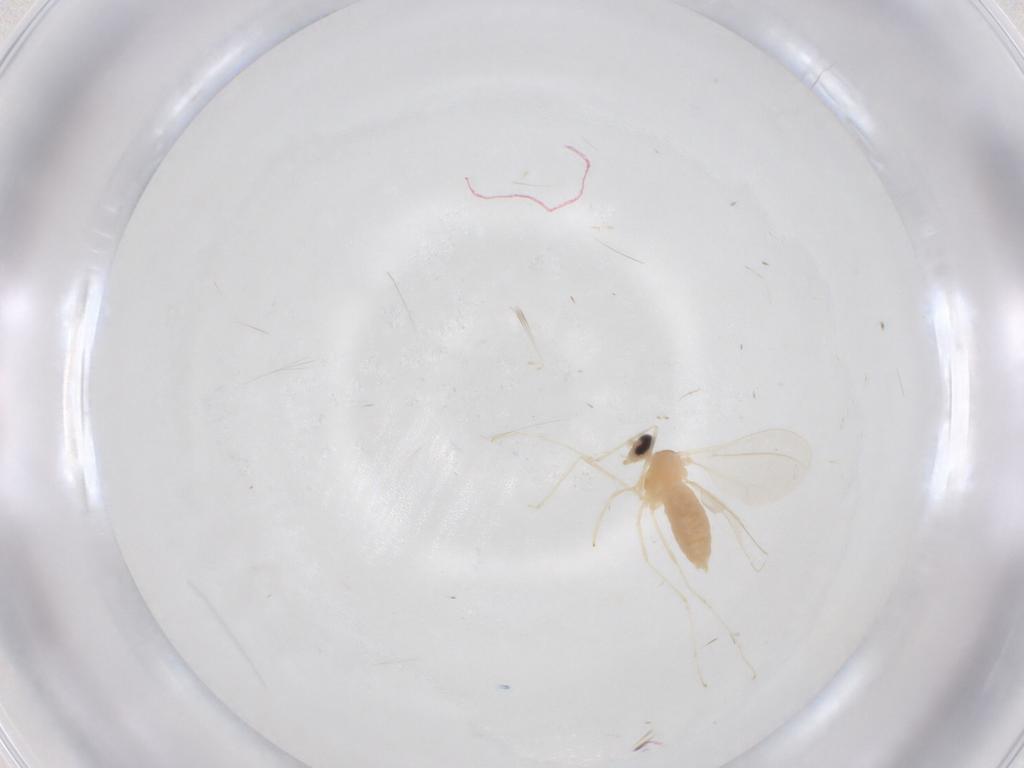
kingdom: Animalia
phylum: Arthropoda
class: Insecta
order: Diptera
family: Cecidomyiidae
